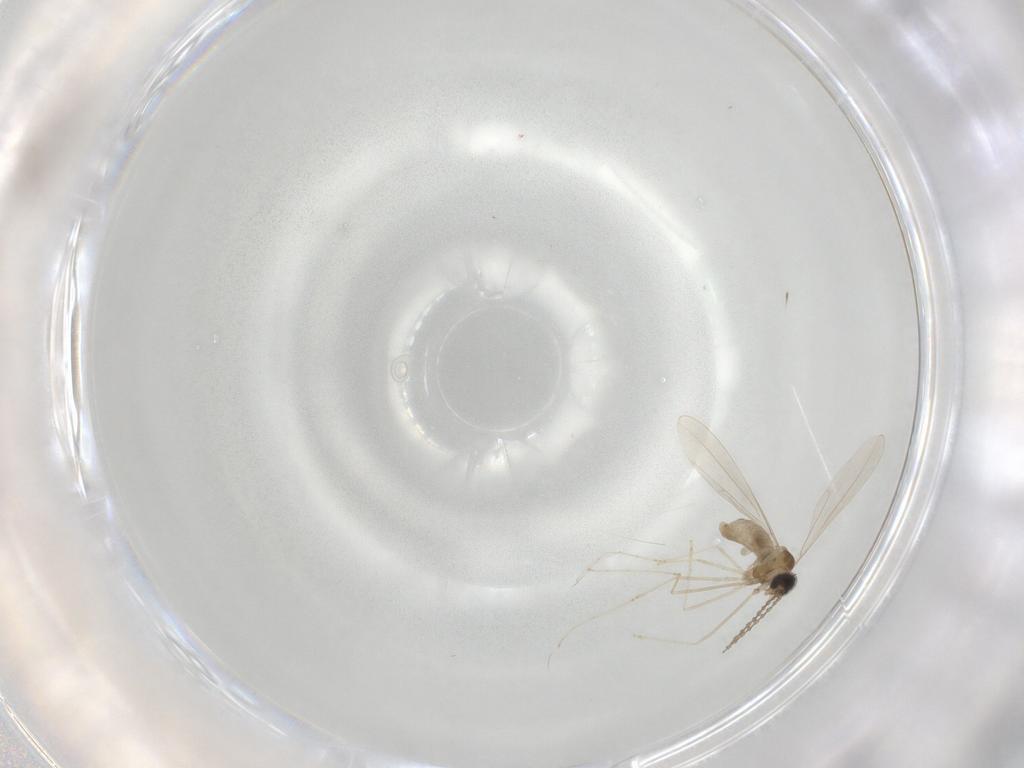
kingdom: Animalia
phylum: Arthropoda
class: Insecta
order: Diptera
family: Cecidomyiidae
